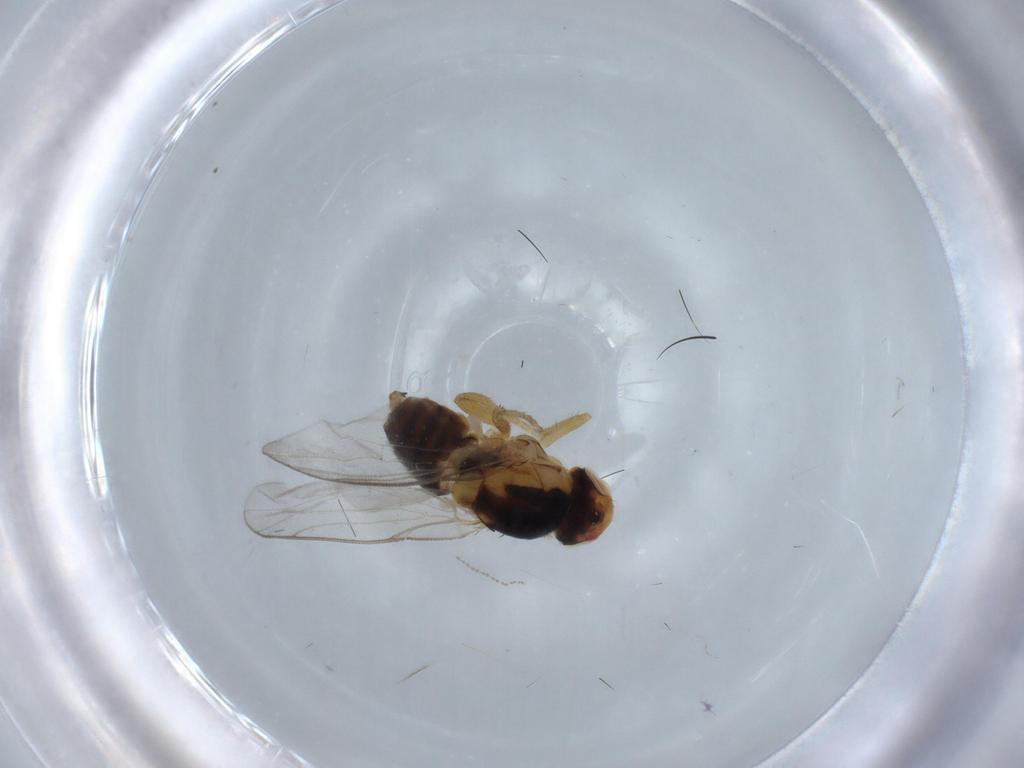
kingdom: Animalia
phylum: Arthropoda
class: Insecta
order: Diptera
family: Chloropidae
